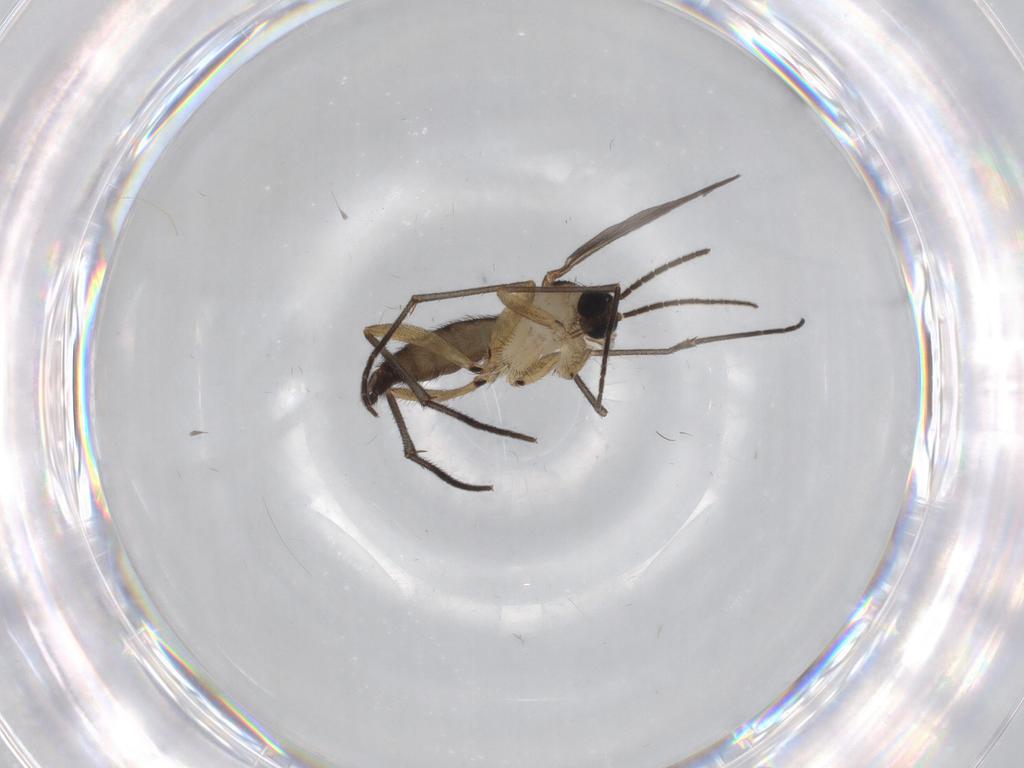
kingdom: Animalia
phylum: Arthropoda
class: Insecta
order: Diptera
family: Sciaridae
